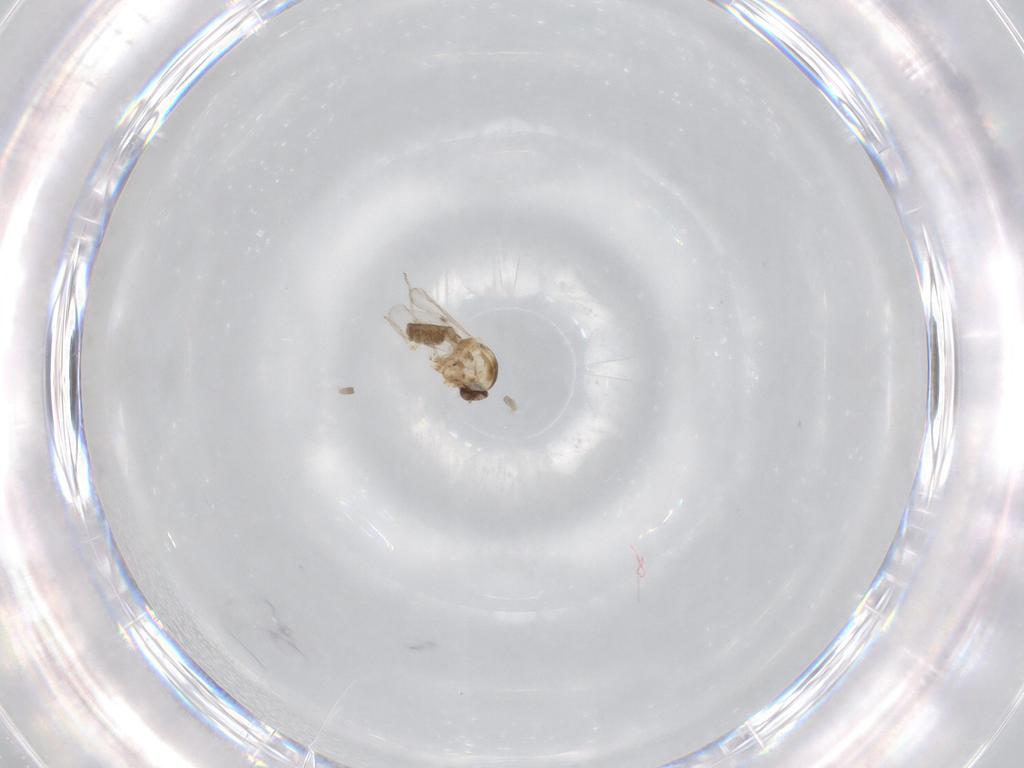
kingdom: Animalia
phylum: Arthropoda
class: Insecta
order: Diptera
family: Ceratopogonidae
